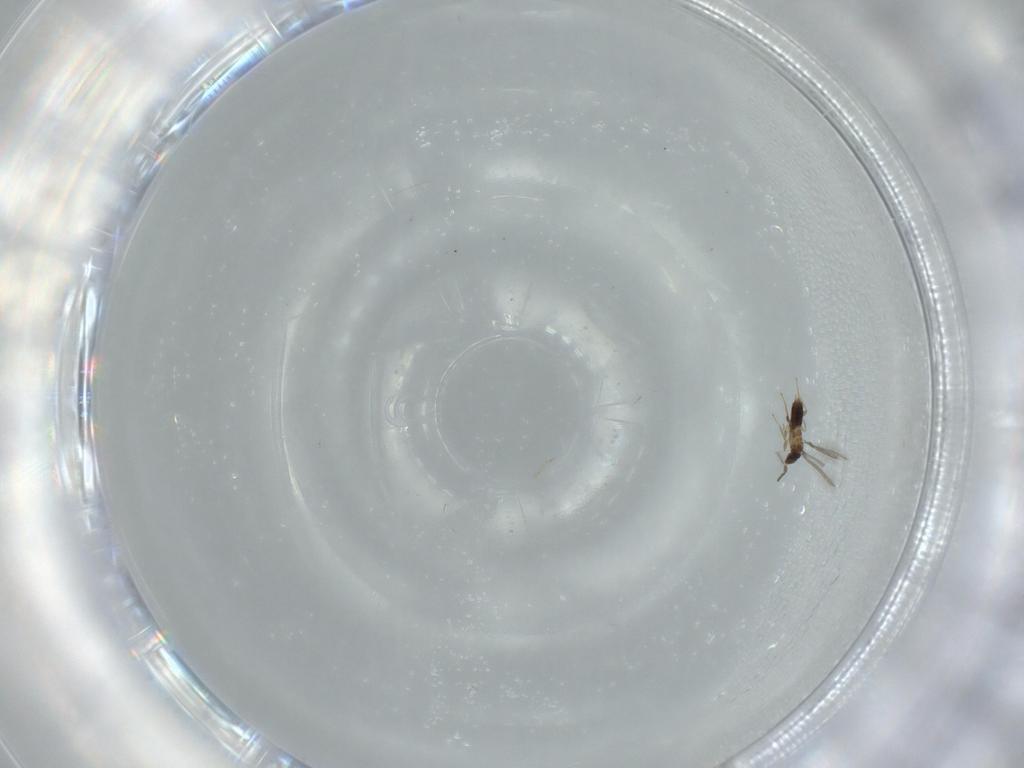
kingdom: Animalia
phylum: Arthropoda
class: Insecta
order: Hymenoptera
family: Mymaridae
